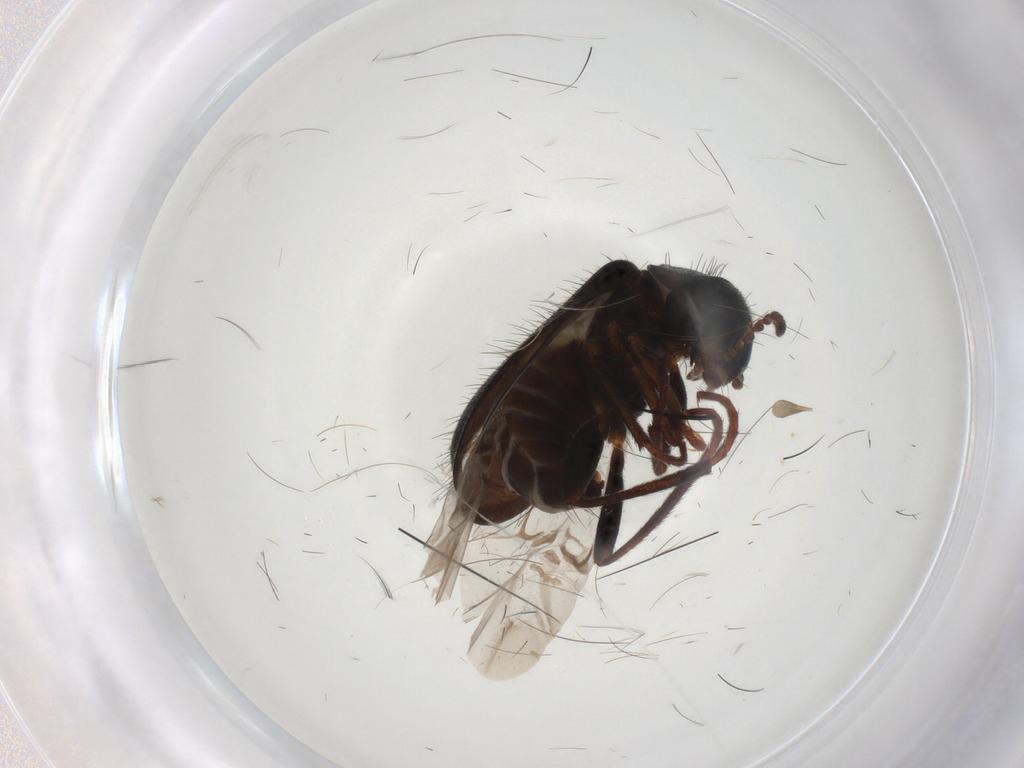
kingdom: Animalia
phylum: Arthropoda
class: Insecta
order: Coleoptera
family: Melyridae
